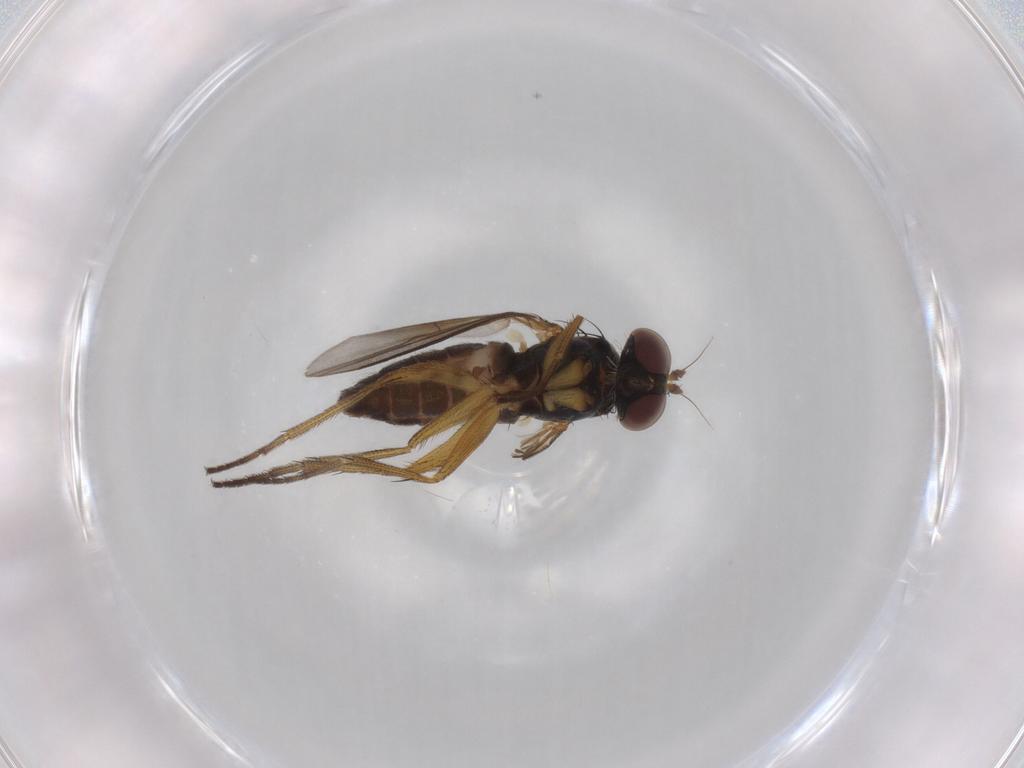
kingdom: Animalia
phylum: Arthropoda
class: Insecta
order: Diptera
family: Dolichopodidae
